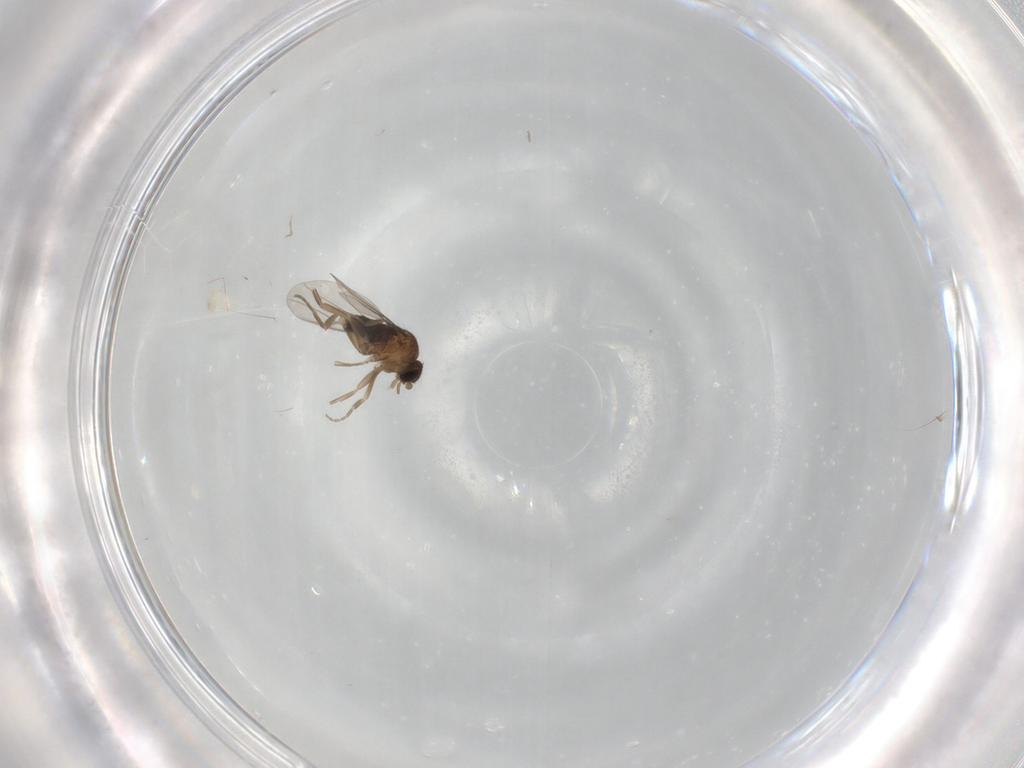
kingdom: Animalia
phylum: Arthropoda
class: Insecta
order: Diptera
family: Phoridae
